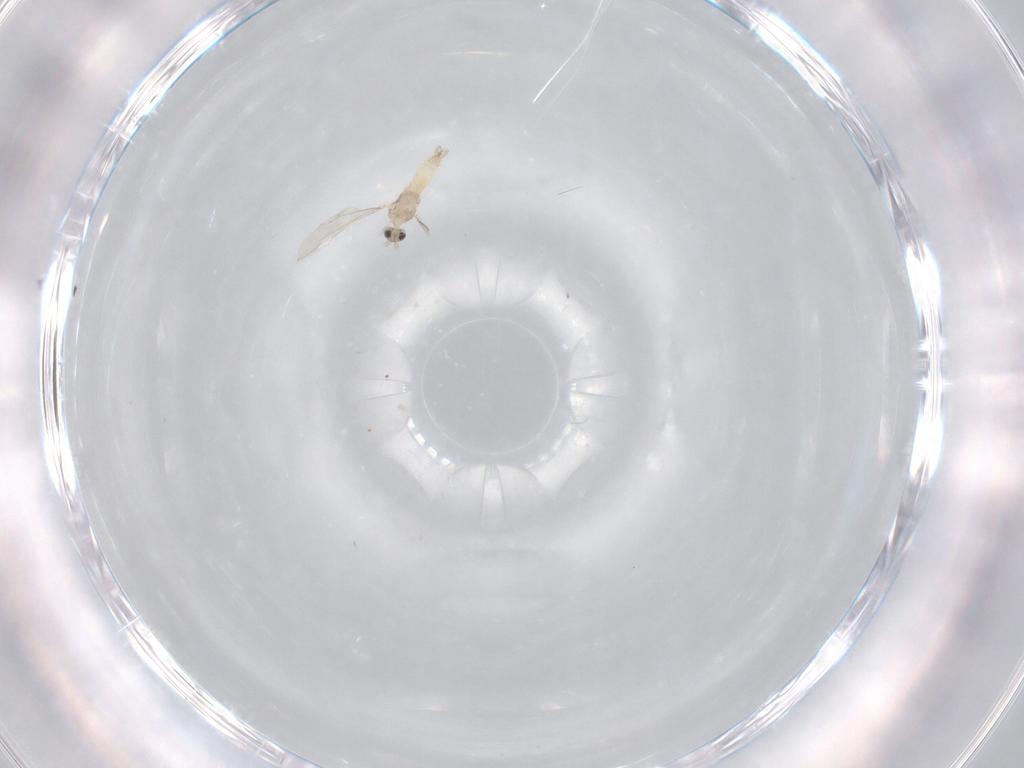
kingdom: Animalia
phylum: Arthropoda
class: Insecta
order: Diptera
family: Cecidomyiidae
